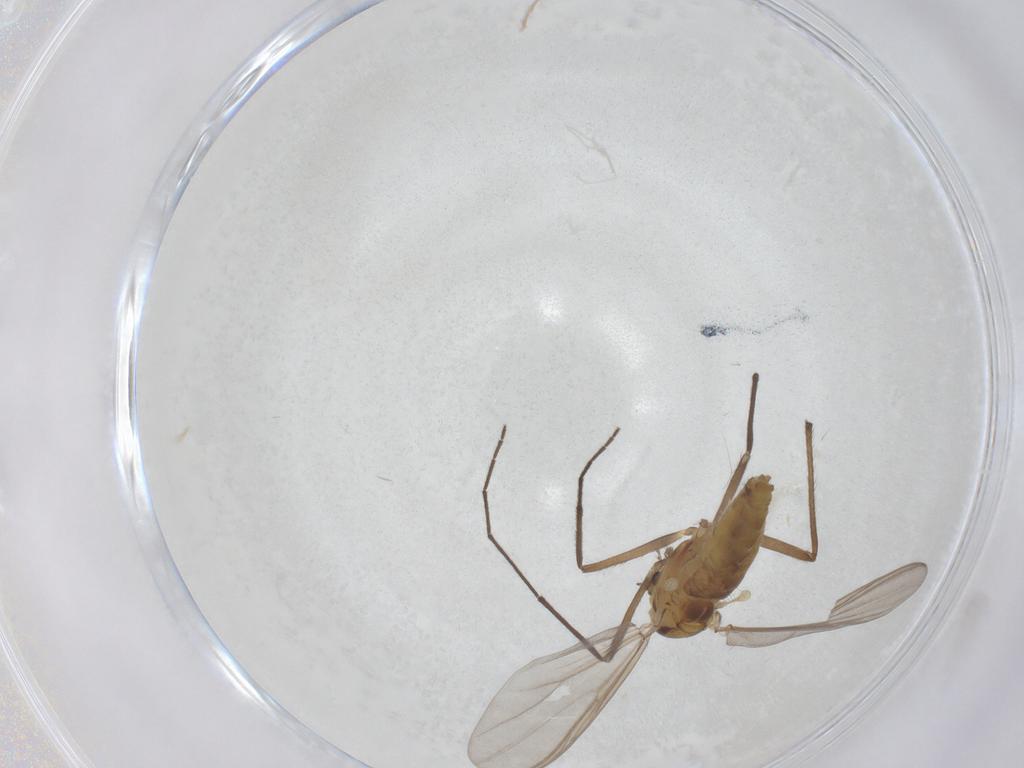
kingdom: Animalia
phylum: Arthropoda
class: Insecta
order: Diptera
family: Chironomidae
